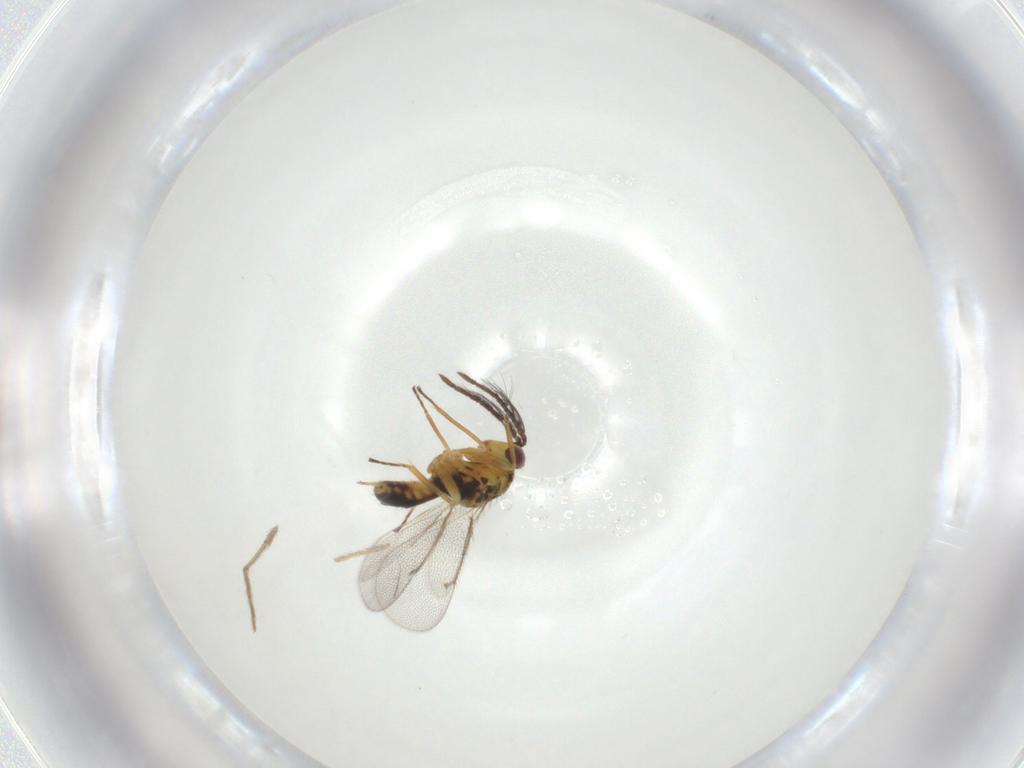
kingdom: Animalia
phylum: Arthropoda
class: Insecta
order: Hymenoptera
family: Eulophidae
